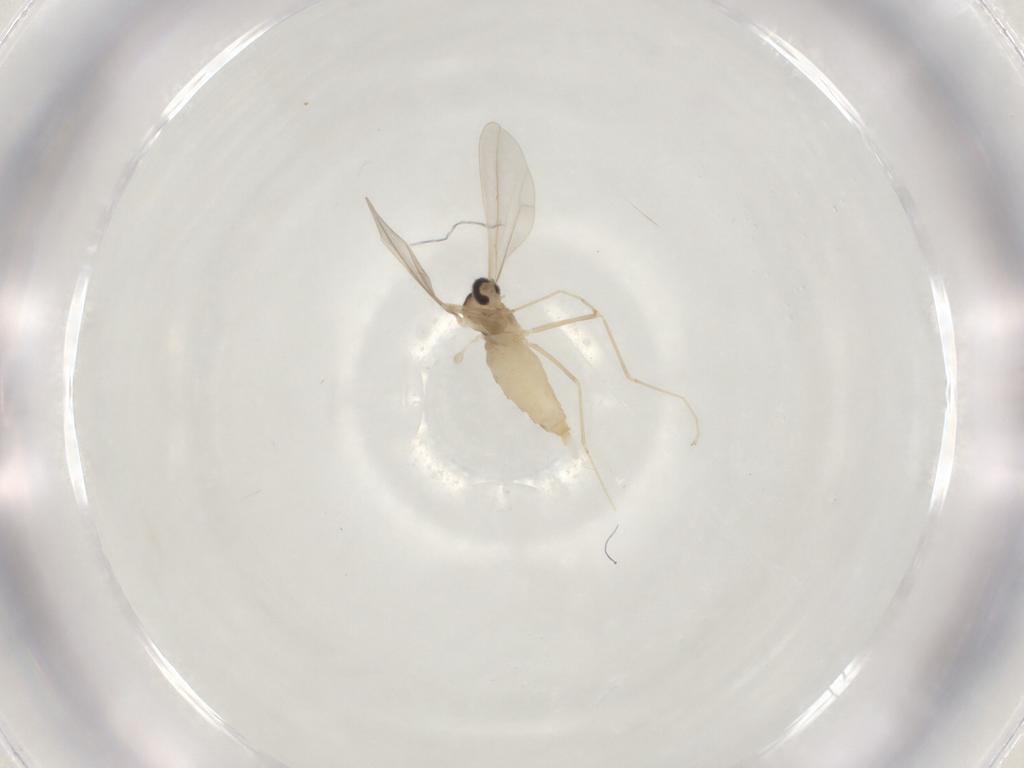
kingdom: Animalia
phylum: Arthropoda
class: Insecta
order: Diptera
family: Cecidomyiidae
